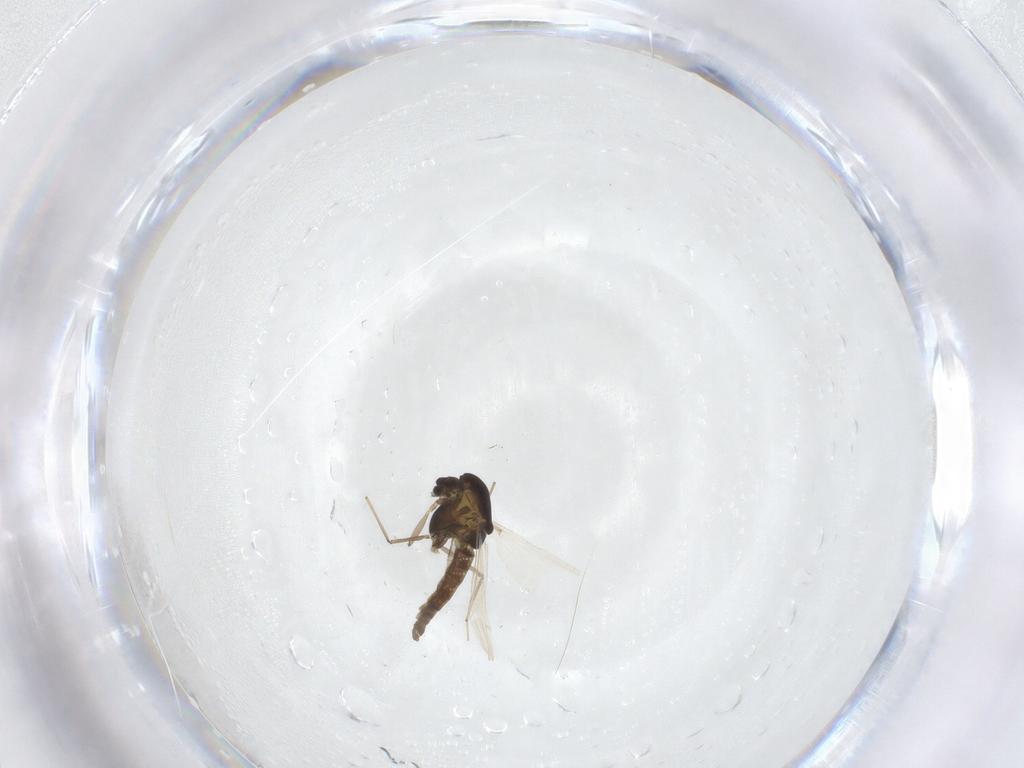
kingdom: Animalia
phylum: Arthropoda
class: Insecta
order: Diptera
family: Chironomidae
